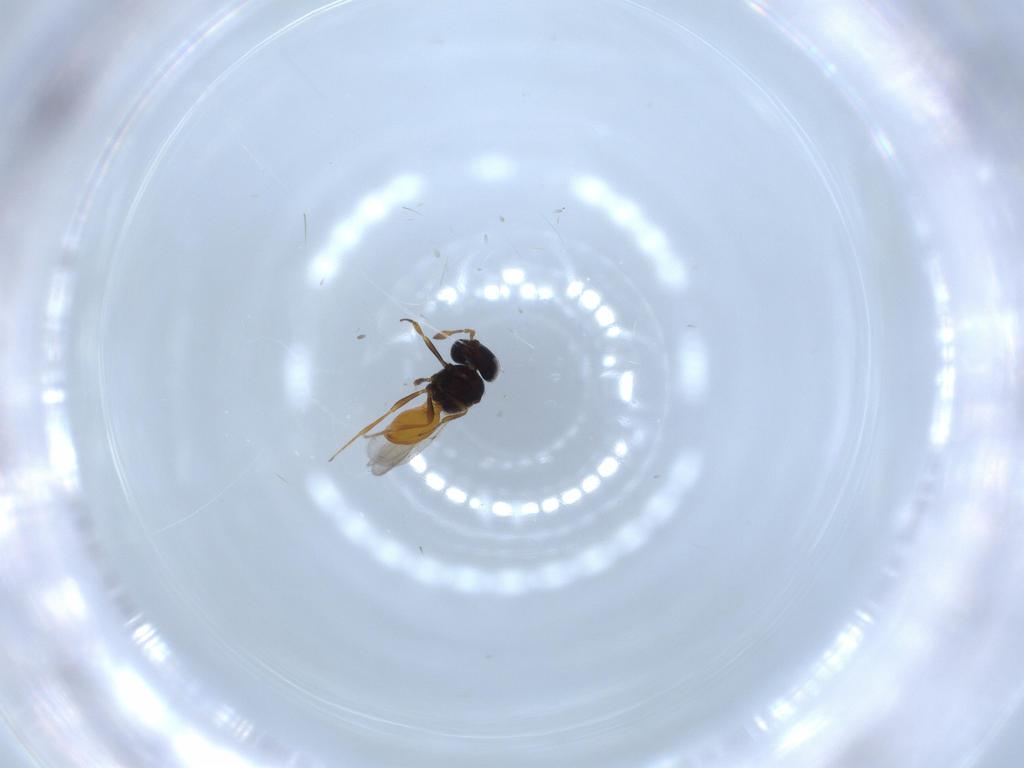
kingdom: Animalia
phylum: Arthropoda
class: Insecta
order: Hymenoptera
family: Scelionidae
